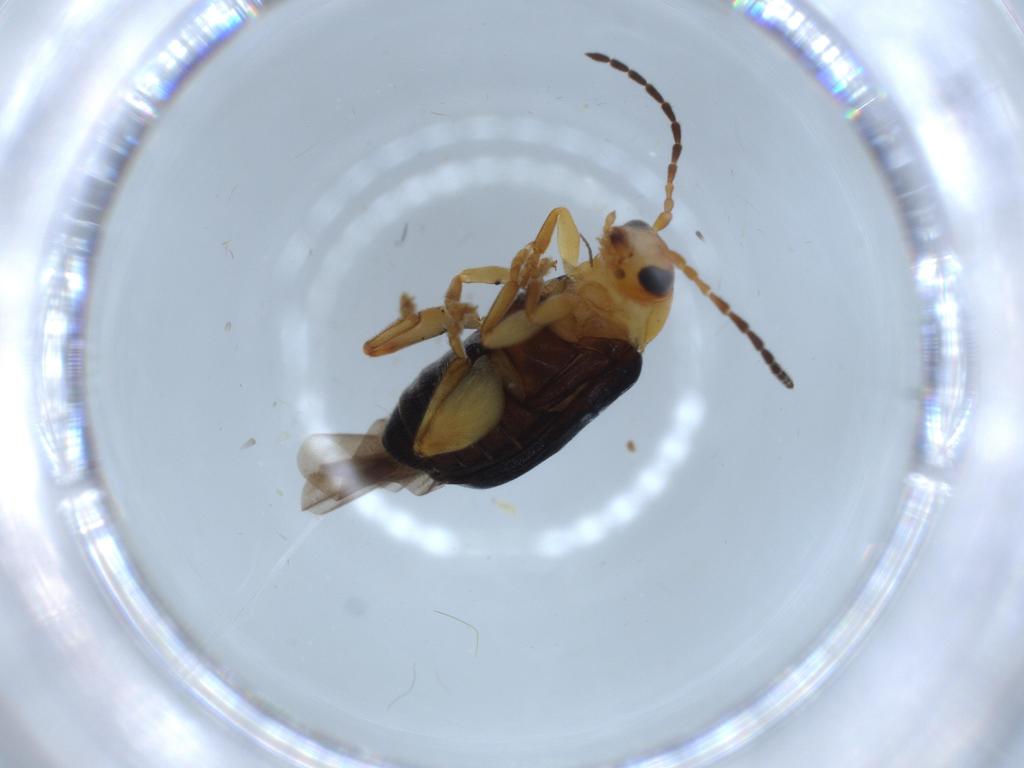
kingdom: Animalia
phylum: Arthropoda
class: Insecta
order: Coleoptera
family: Chrysomelidae
